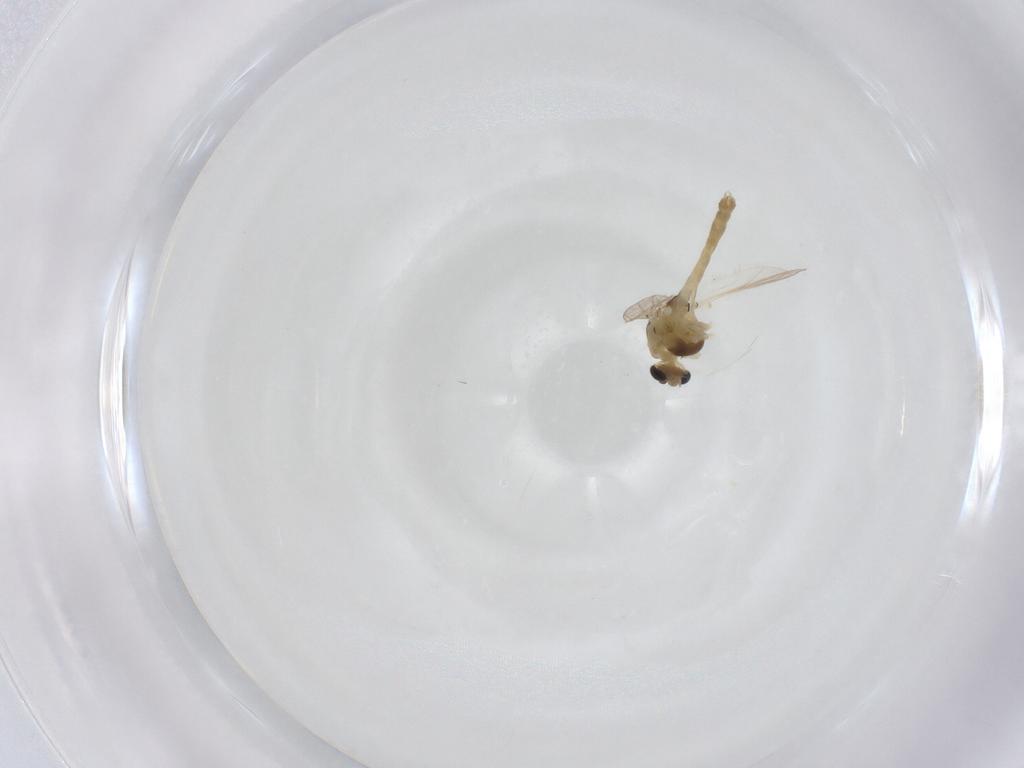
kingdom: Animalia
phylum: Arthropoda
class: Insecta
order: Diptera
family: Chironomidae
